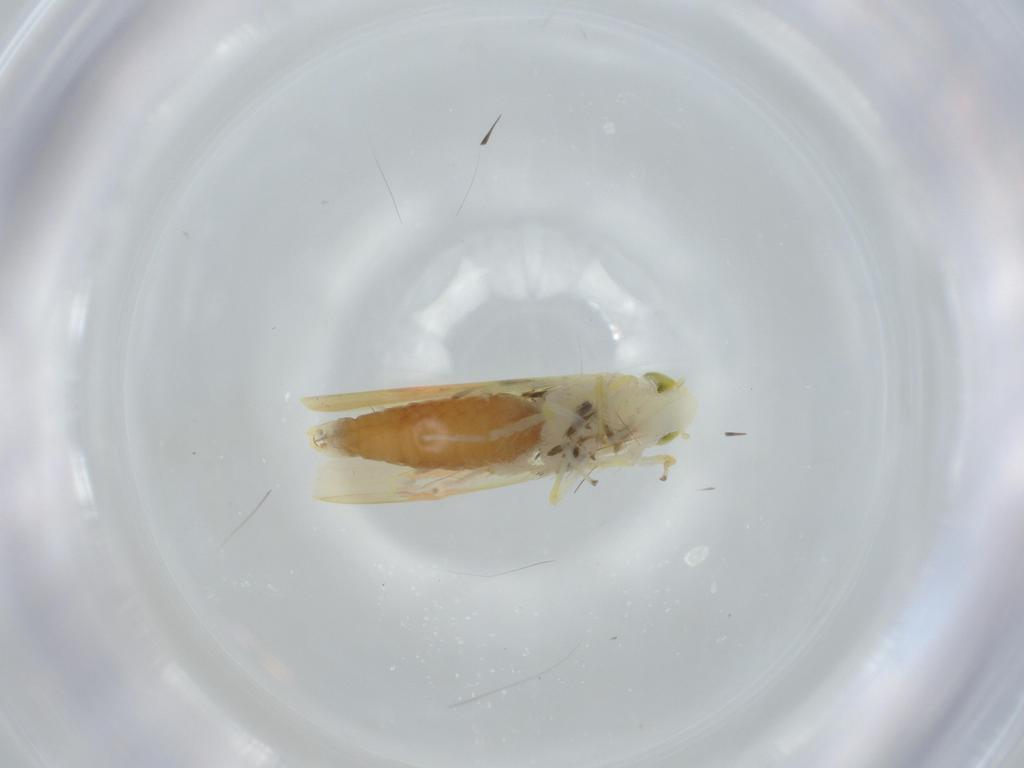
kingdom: Animalia
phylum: Arthropoda
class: Insecta
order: Hemiptera
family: Cicadellidae
